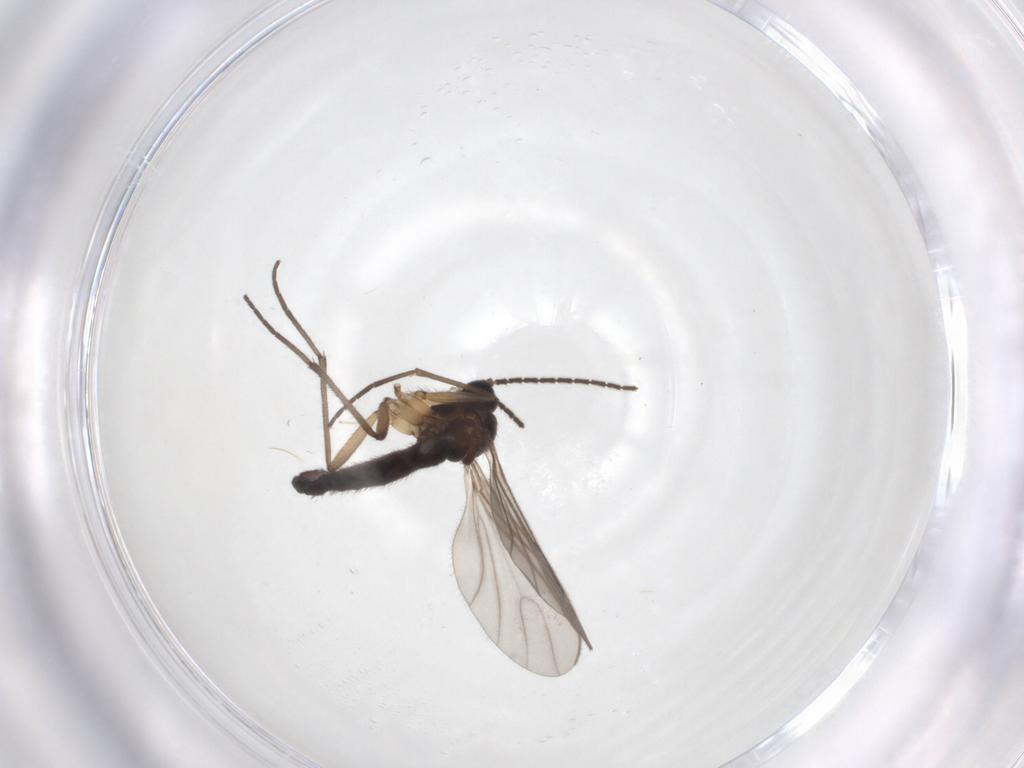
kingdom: Animalia
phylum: Arthropoda
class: Insecta
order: Diptera
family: Sciaridae
